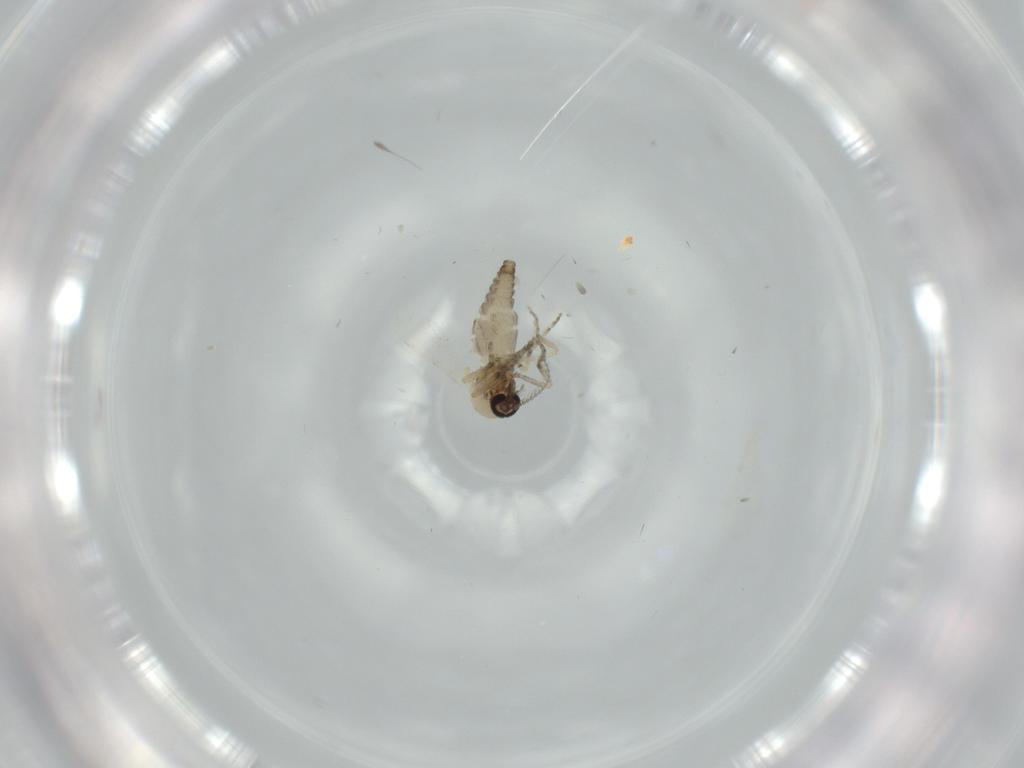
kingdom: Animalia
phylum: Arthropoda
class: Insecta
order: Diptera
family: Ceratopogonidae
